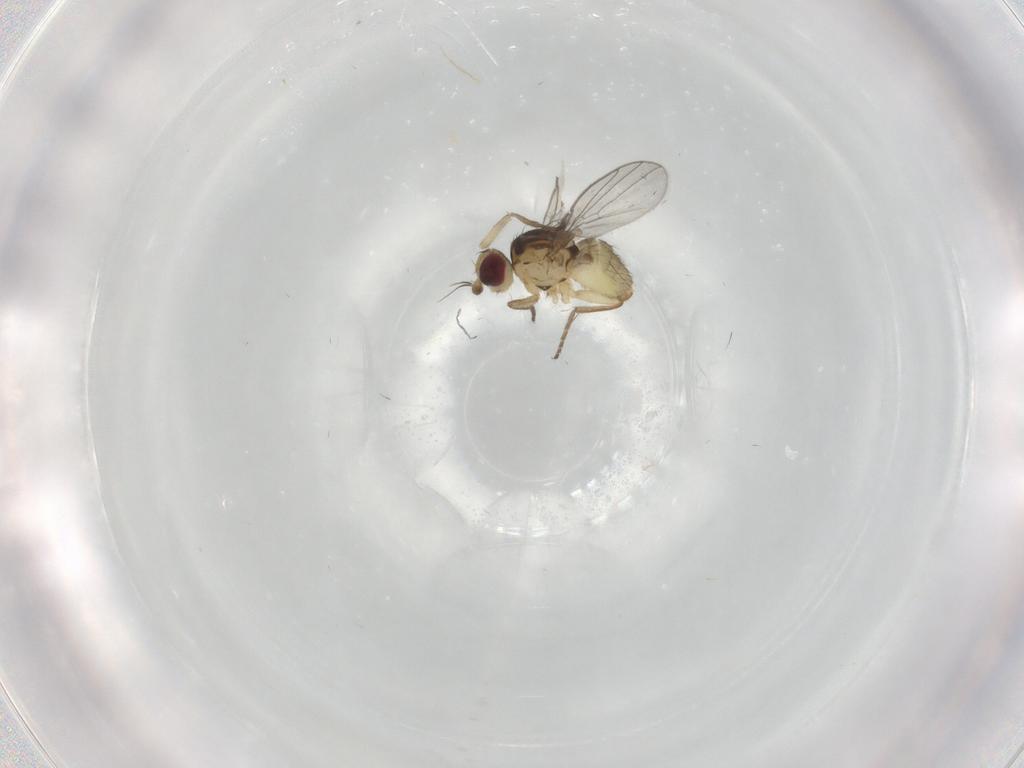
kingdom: Animalia
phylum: Arthropoda
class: Insecta
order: Diptera
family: Agromyzidae
